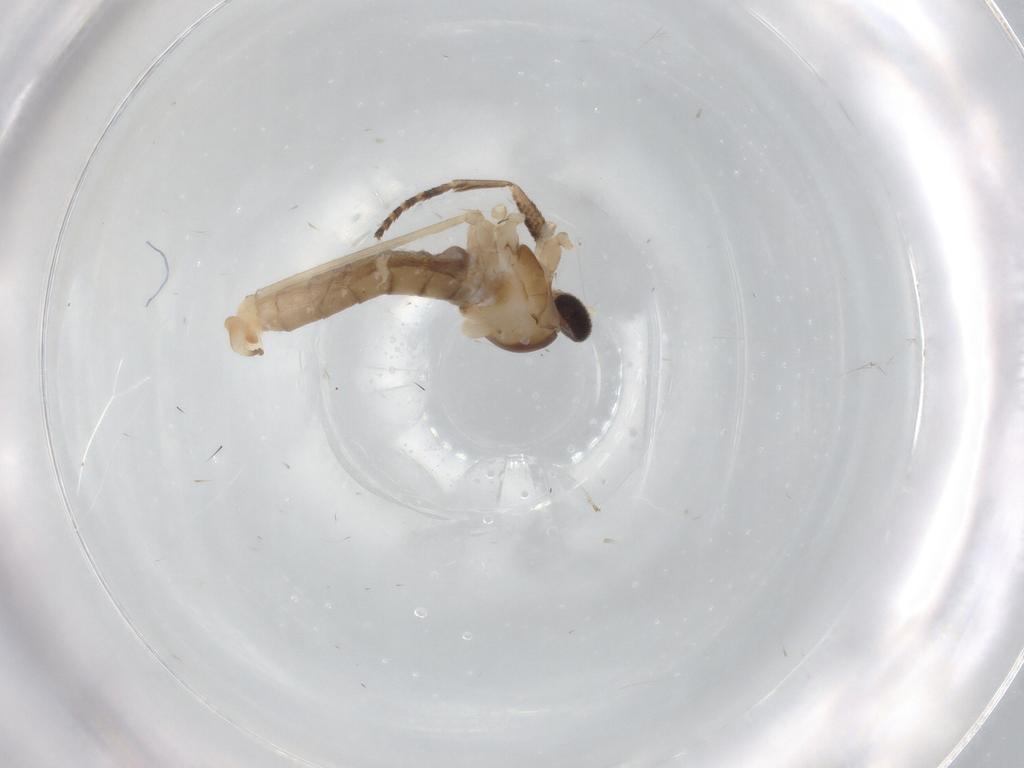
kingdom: Animalia
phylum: Arthropoda
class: Insecta
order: Diptera
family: Cecidomyiidae
